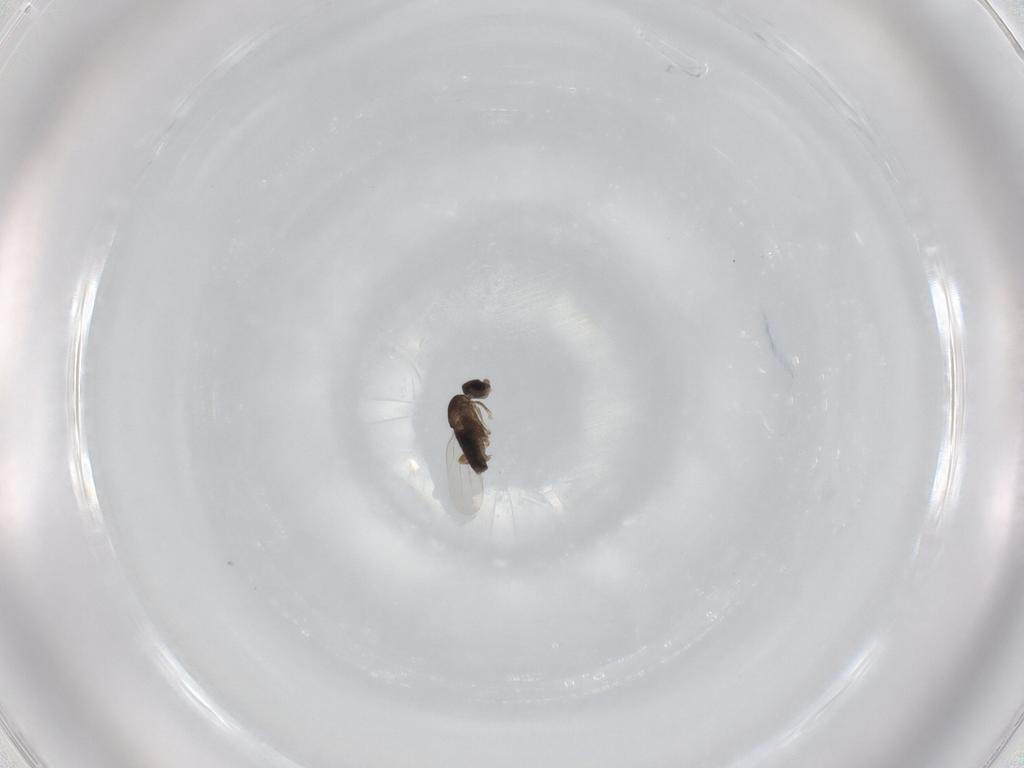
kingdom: Animalia
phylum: Arthropoda
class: Insecta
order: Diptera
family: Phoridae
